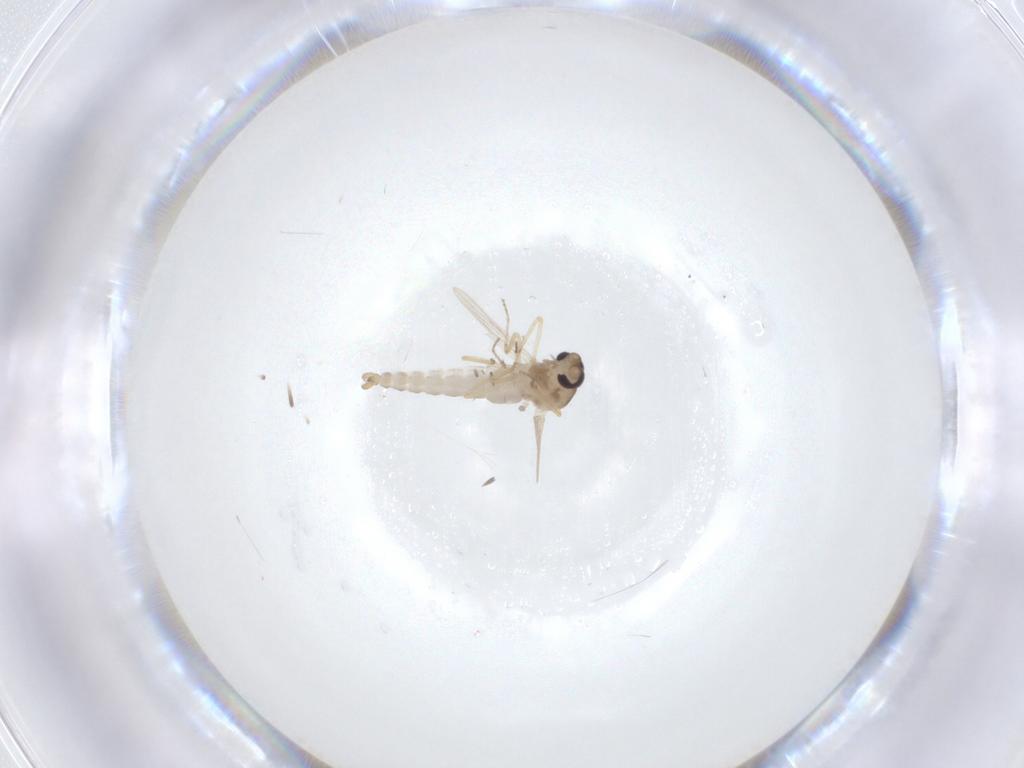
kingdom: Animalia
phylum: Arthropoda
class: Insecta
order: Diptera
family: Ceratopogonidae
